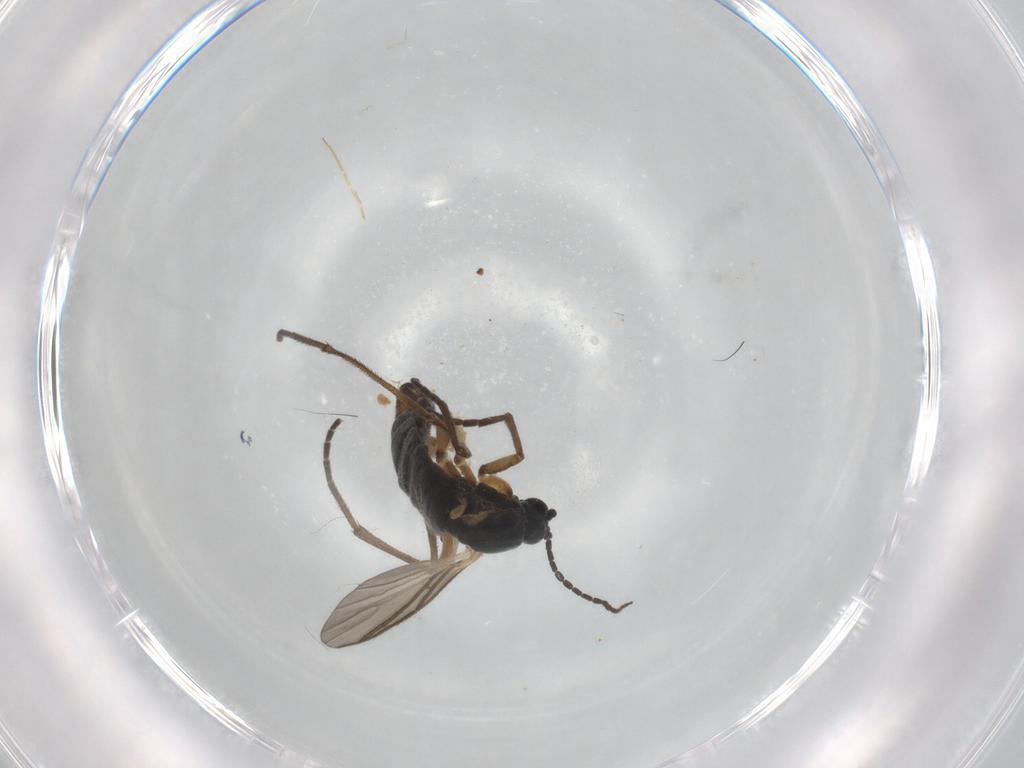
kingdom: Animalia
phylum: Arthropoda
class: Insecta
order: Diptera
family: Sciaridae
